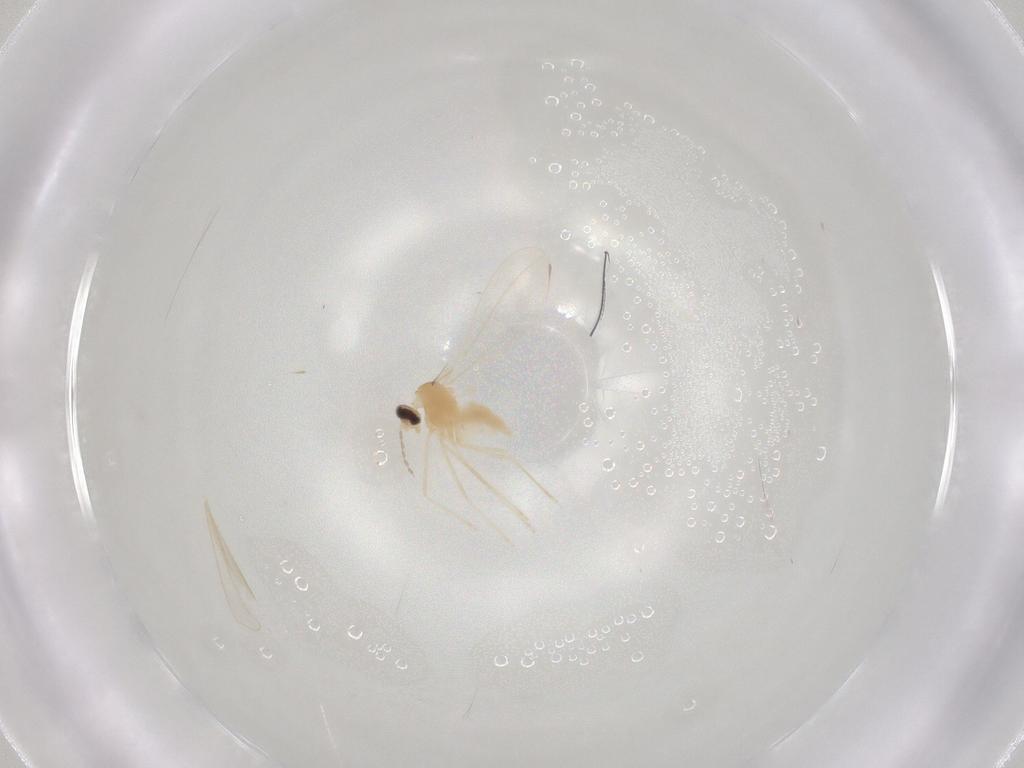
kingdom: Animalia
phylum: Arthropoda
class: Insecta
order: Diptera
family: Cecidomyiidae
